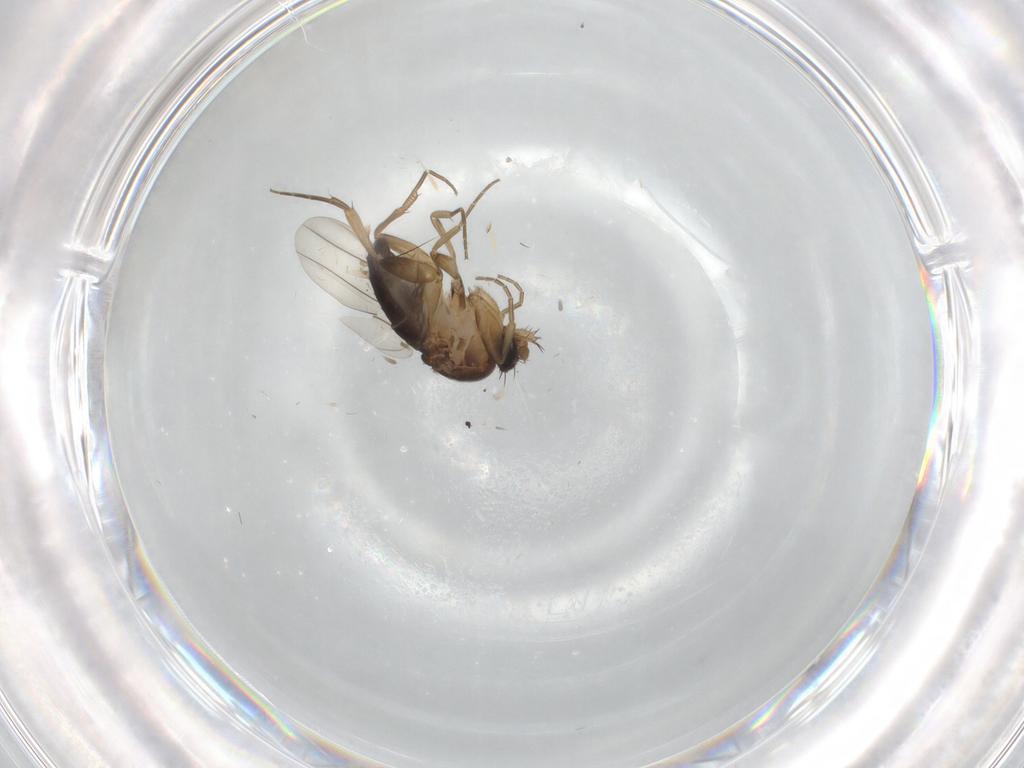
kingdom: Animalia
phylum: Arthropoda
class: Insecta
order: Diptera
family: Phoridae
